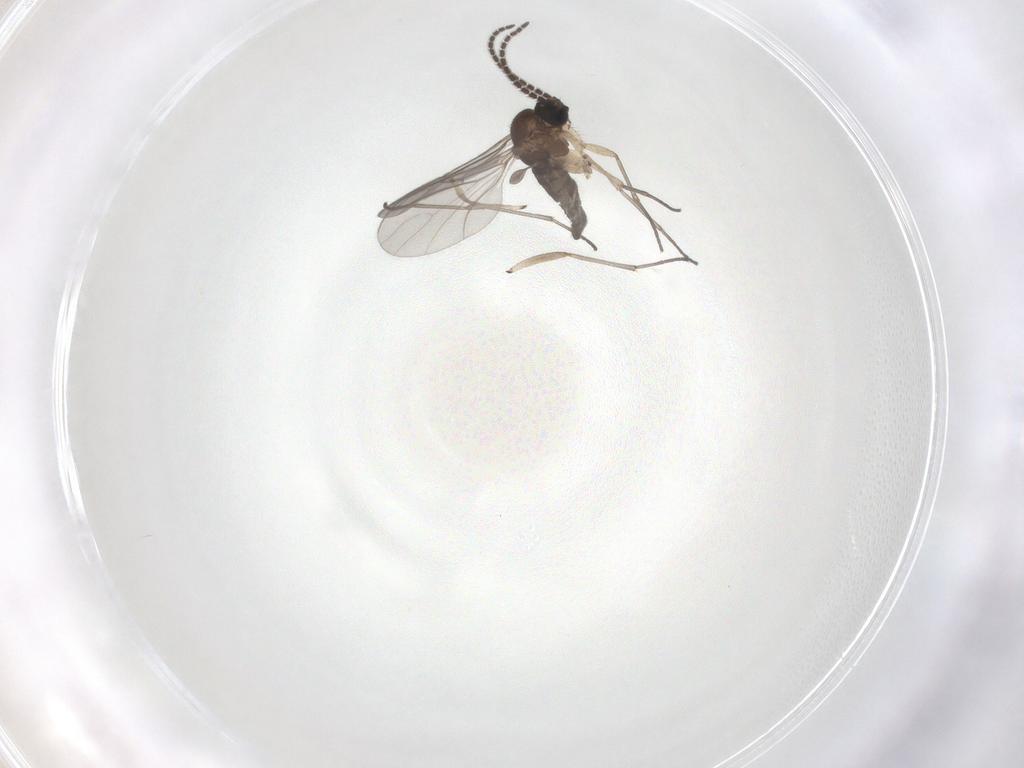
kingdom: Animalia
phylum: Arthropoda
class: Insecta
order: Diptera
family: Sciaridae
